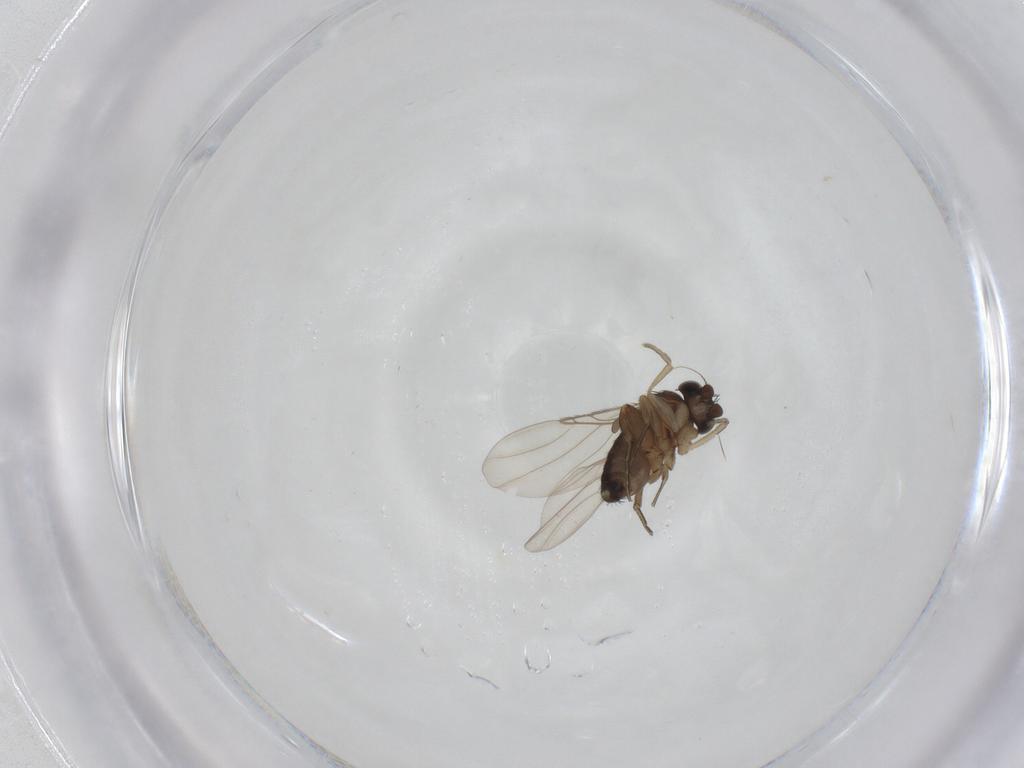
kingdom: Animalia
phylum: Arthropoda
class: Insecta
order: Diptera
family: Phoridae
